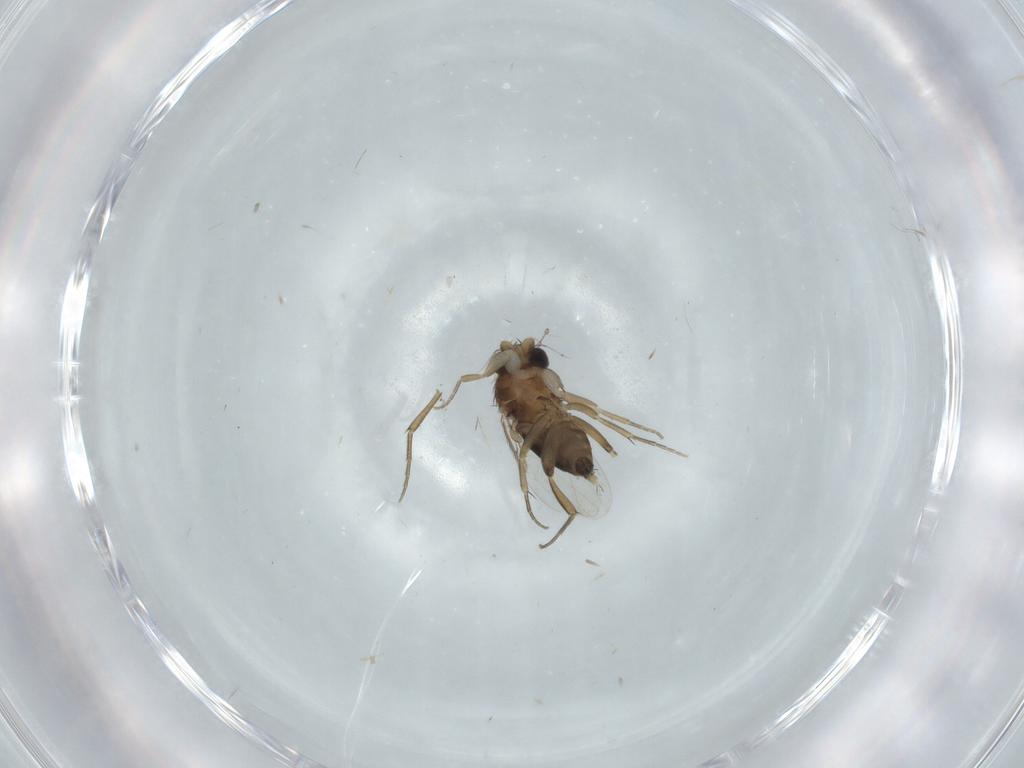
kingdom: Animalia
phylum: Arthropoda
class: Insecta
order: Diptera
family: Phoridae
